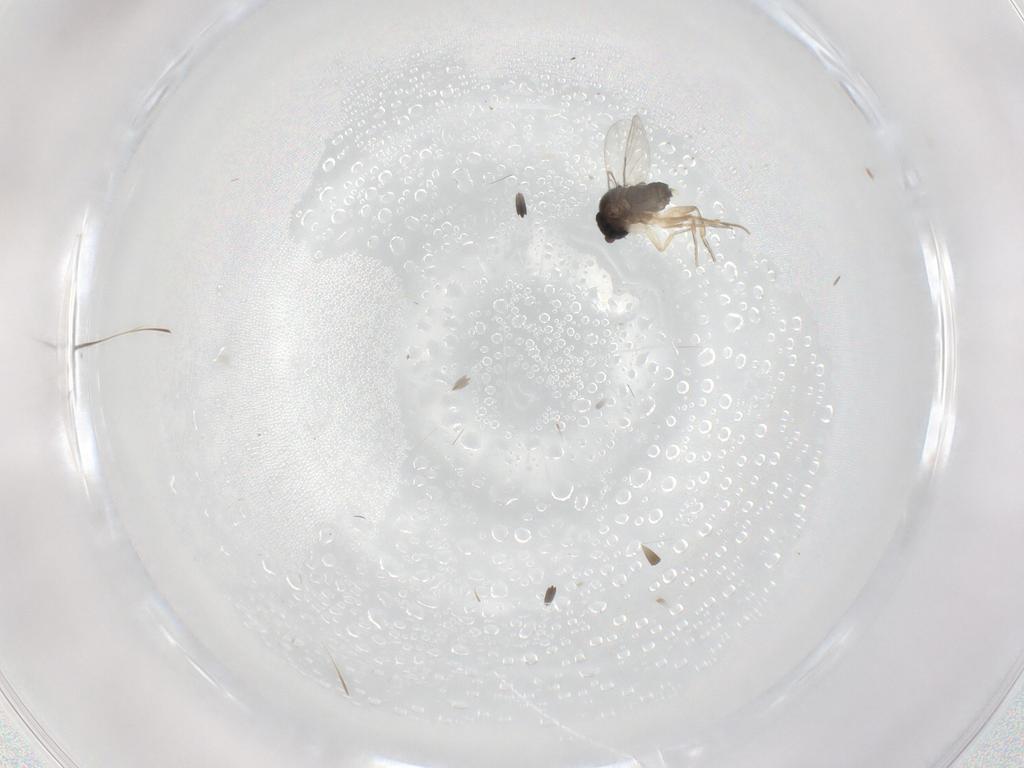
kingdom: Animalia
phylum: Arthropoda
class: Insecta
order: Diptera
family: Phoridae
